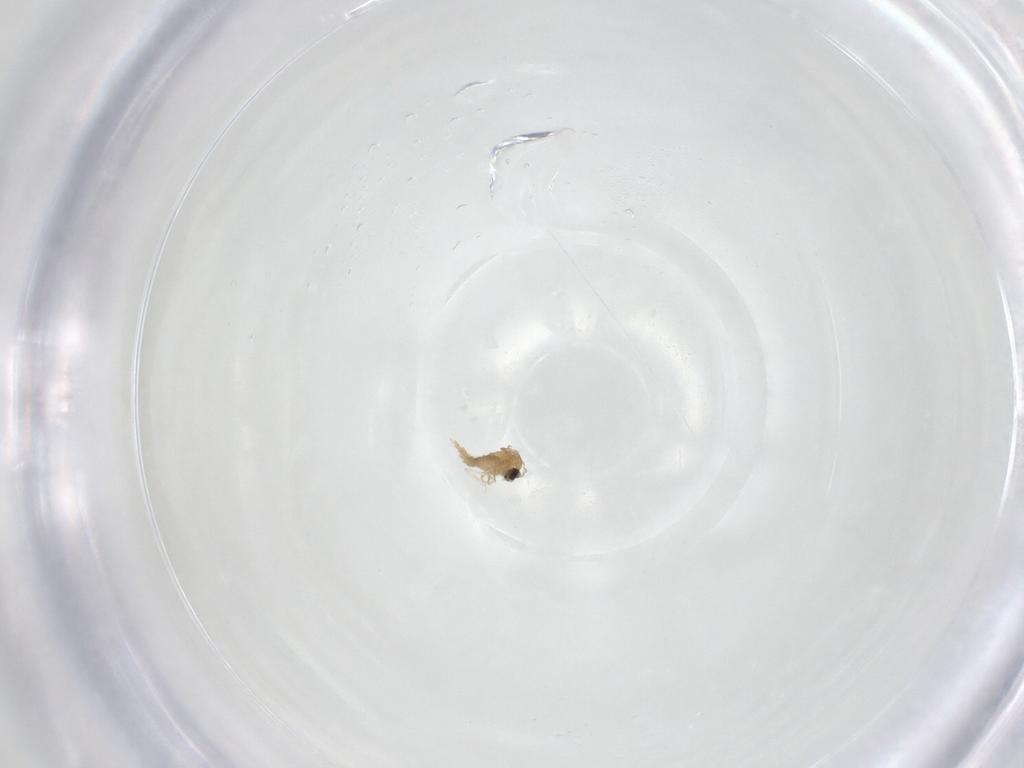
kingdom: Animalia
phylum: Arthropoda
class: Insecta
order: Diptera
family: Cecidomyiidae
